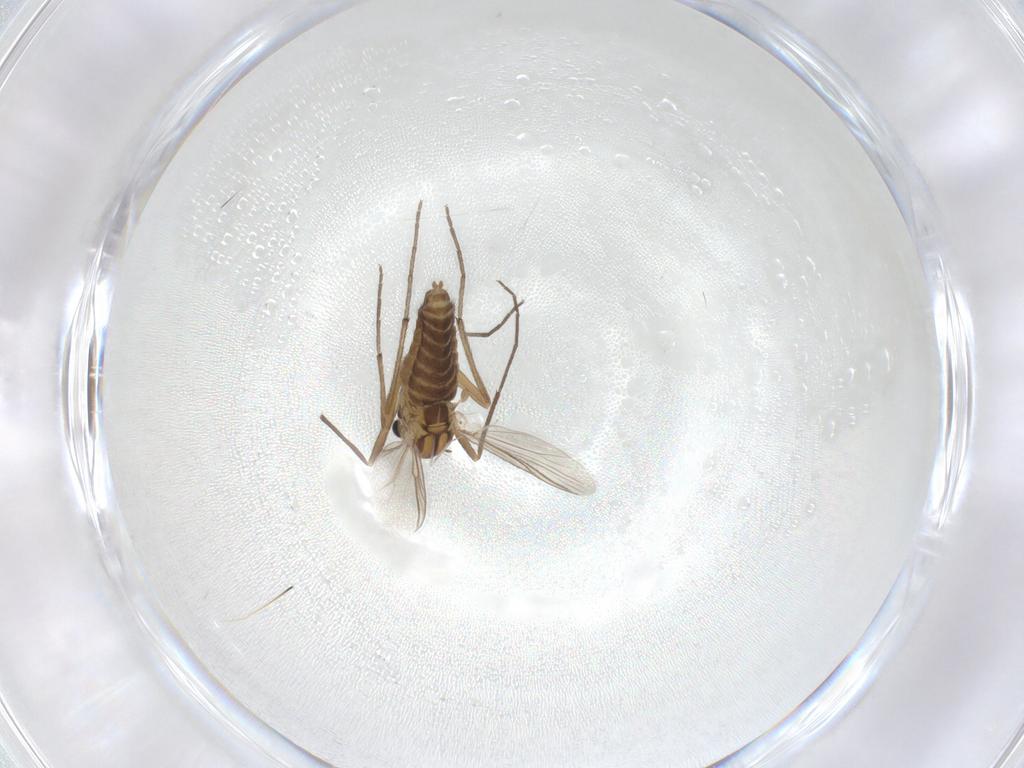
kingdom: Animalia
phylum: Arthropoda
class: Insecta
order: Diptera
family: Chironomidae
